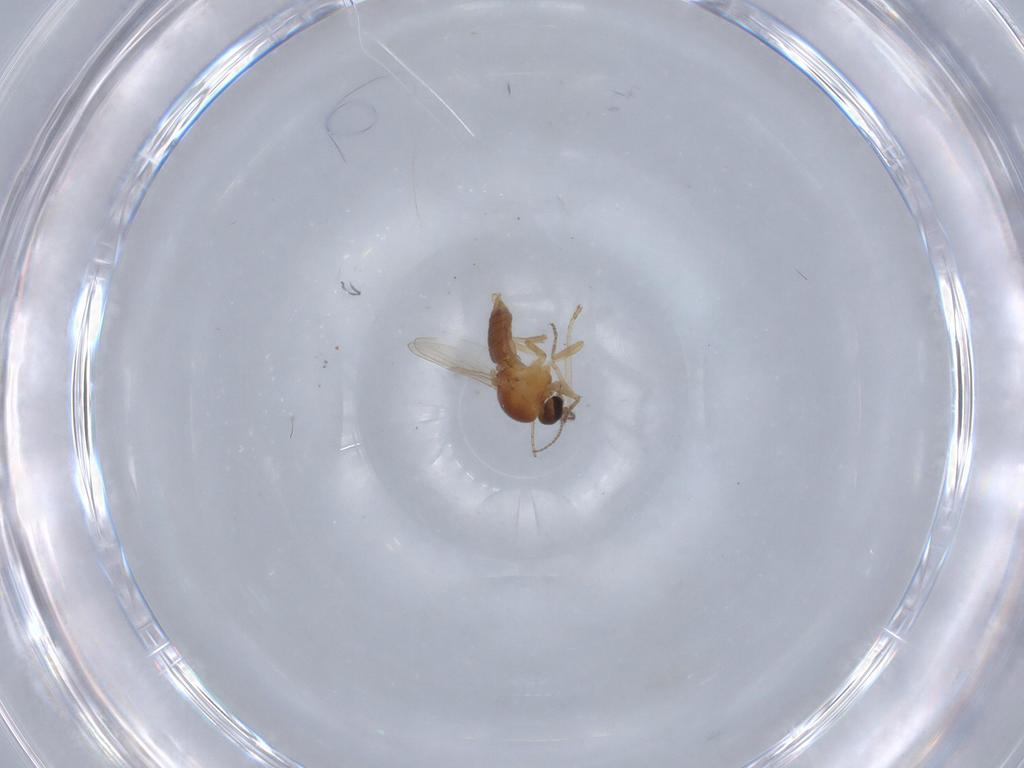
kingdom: Animalia
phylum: Arthropoda
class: Insecta
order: Diptera
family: Ceratopogonidae
